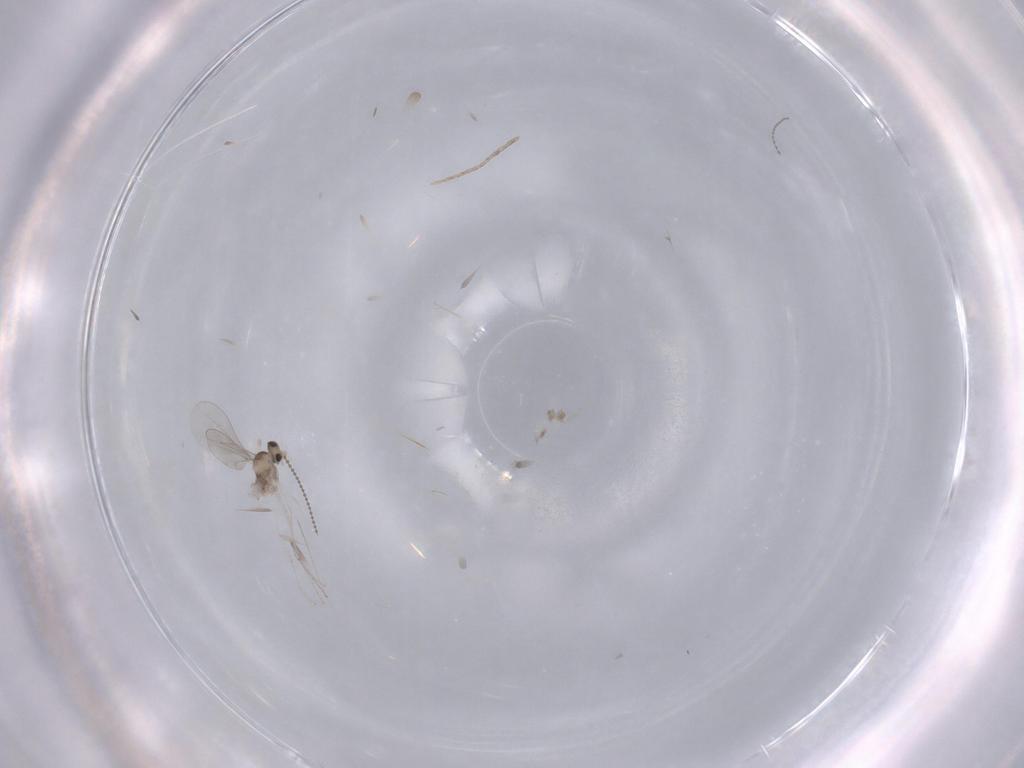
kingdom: Animalia
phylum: Arthropoda
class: Insecta
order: Diptera
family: Cecidomyiidae
